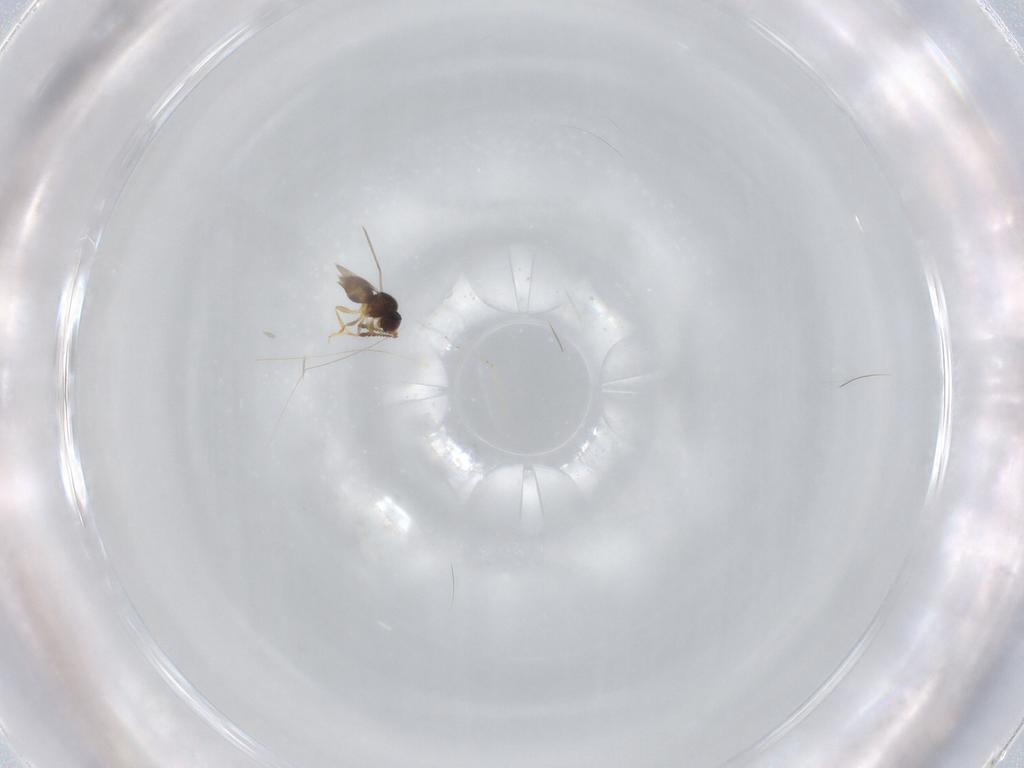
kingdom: Animalia
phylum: Arthropoda
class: Insecta
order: Hymenoptera
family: Ceraphronidae
